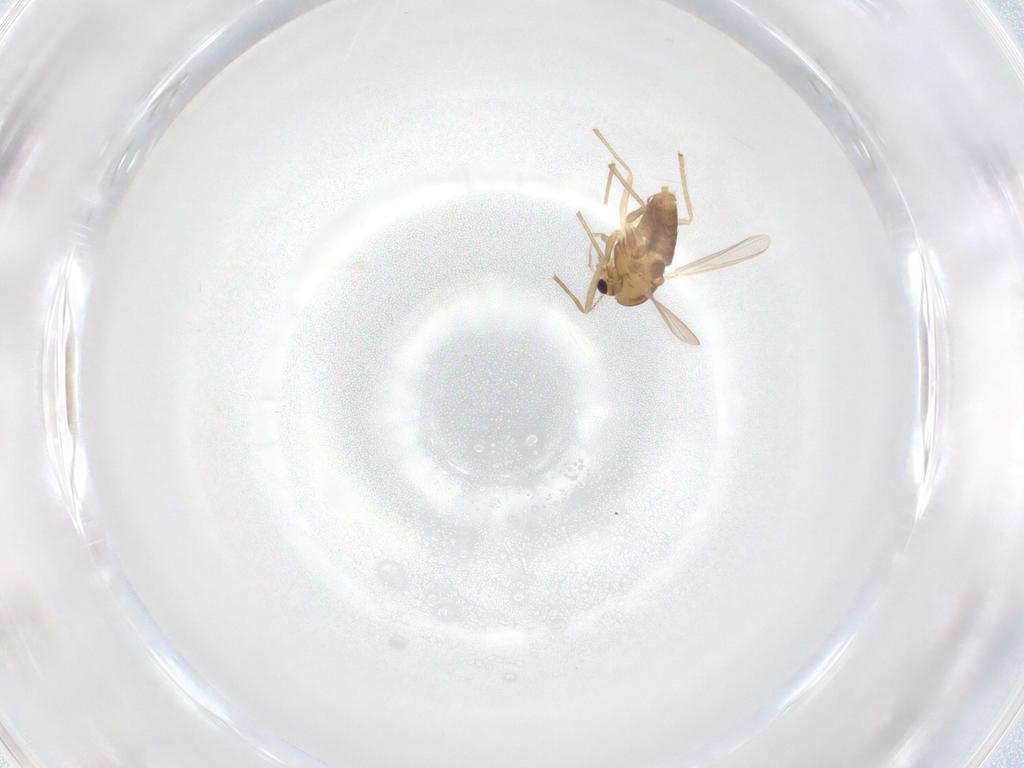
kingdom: Animalia
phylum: Arthropoda
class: Insecta
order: Diptera
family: Chironomidae
